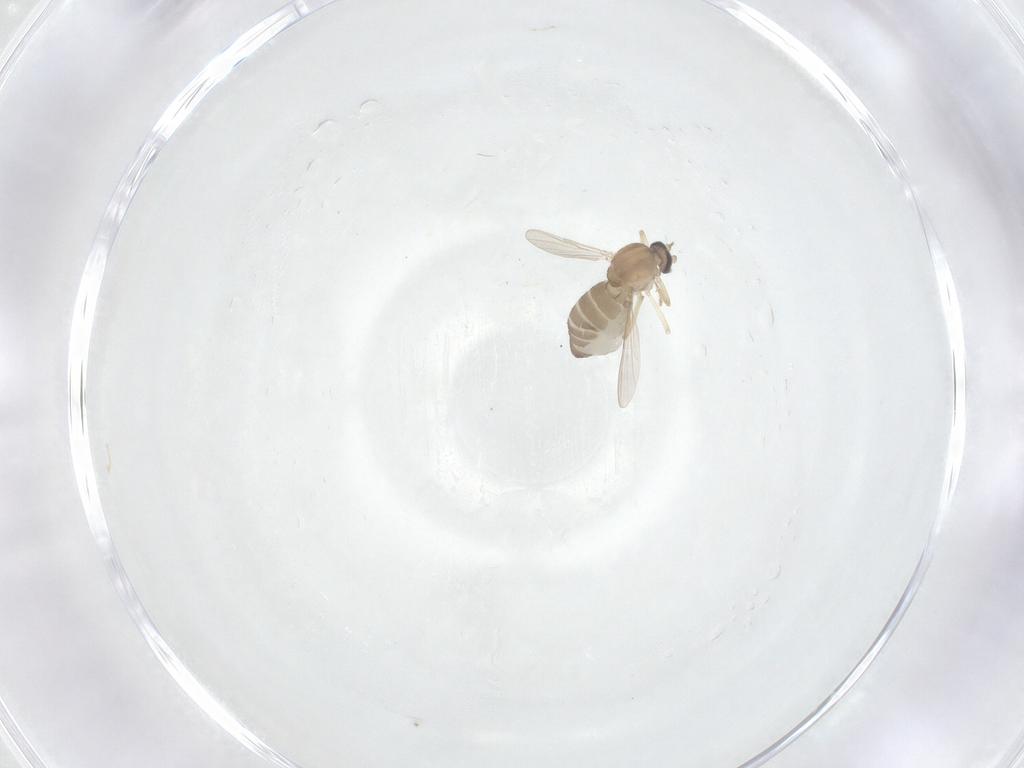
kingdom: Animalia
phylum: Arthropoda
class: Insecta
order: Diptera
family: Ceratopogonidae
